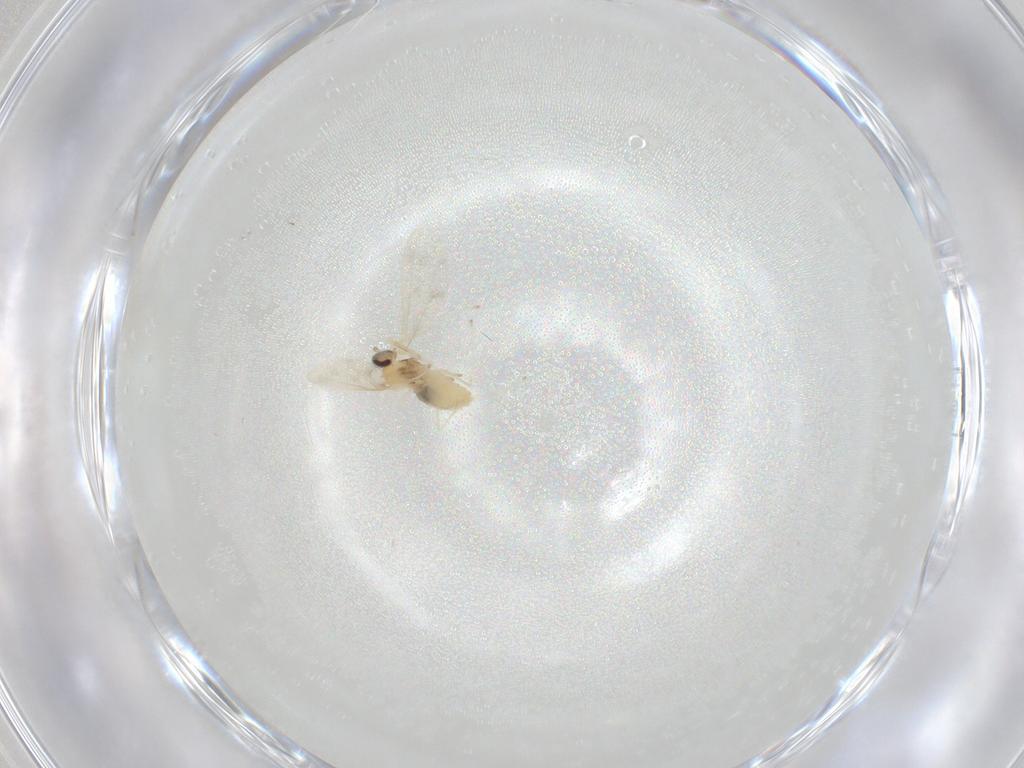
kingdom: Animalia
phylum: Arthropoda
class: Insecta
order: Diptera
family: Cecidomyiidae
